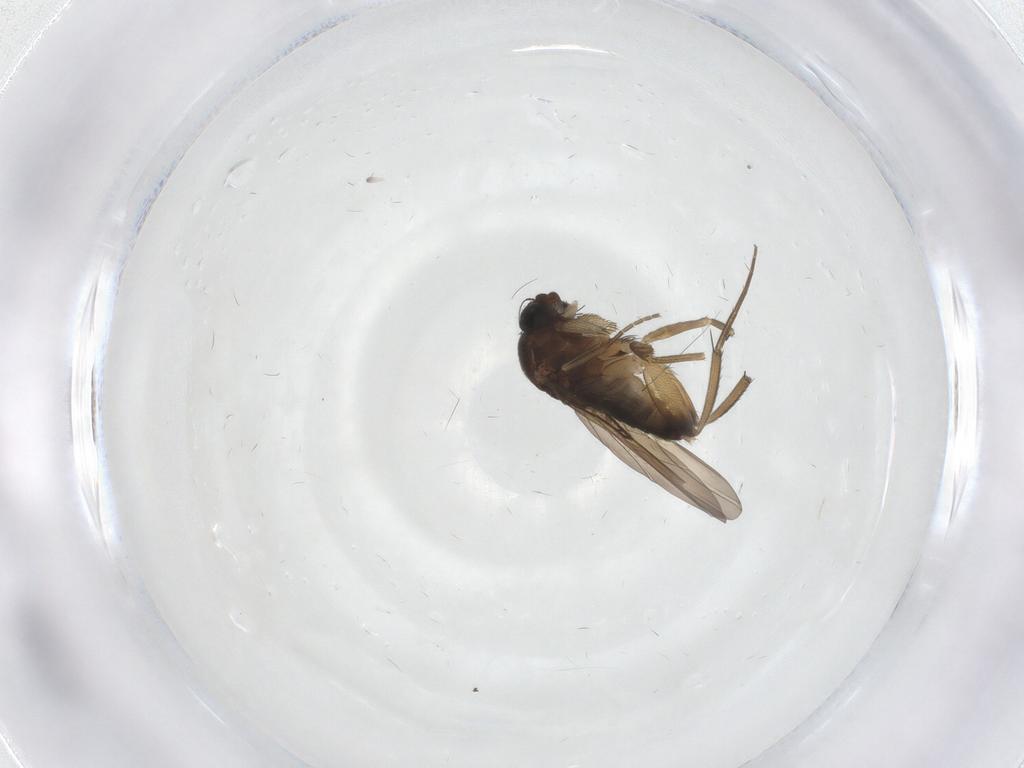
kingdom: Animalia
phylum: Arthropoda
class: Insecta
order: Diptera
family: Phoridae
